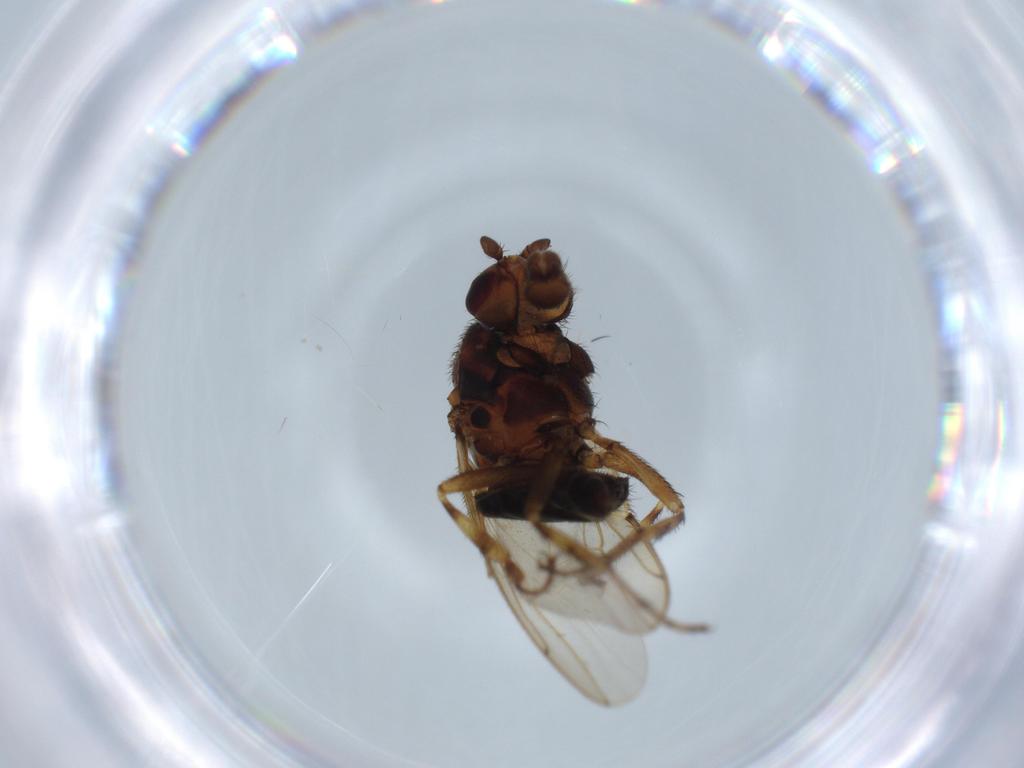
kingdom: Animalia
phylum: Arthropoda
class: Insecta
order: Diptera
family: Sphaeroceridae
